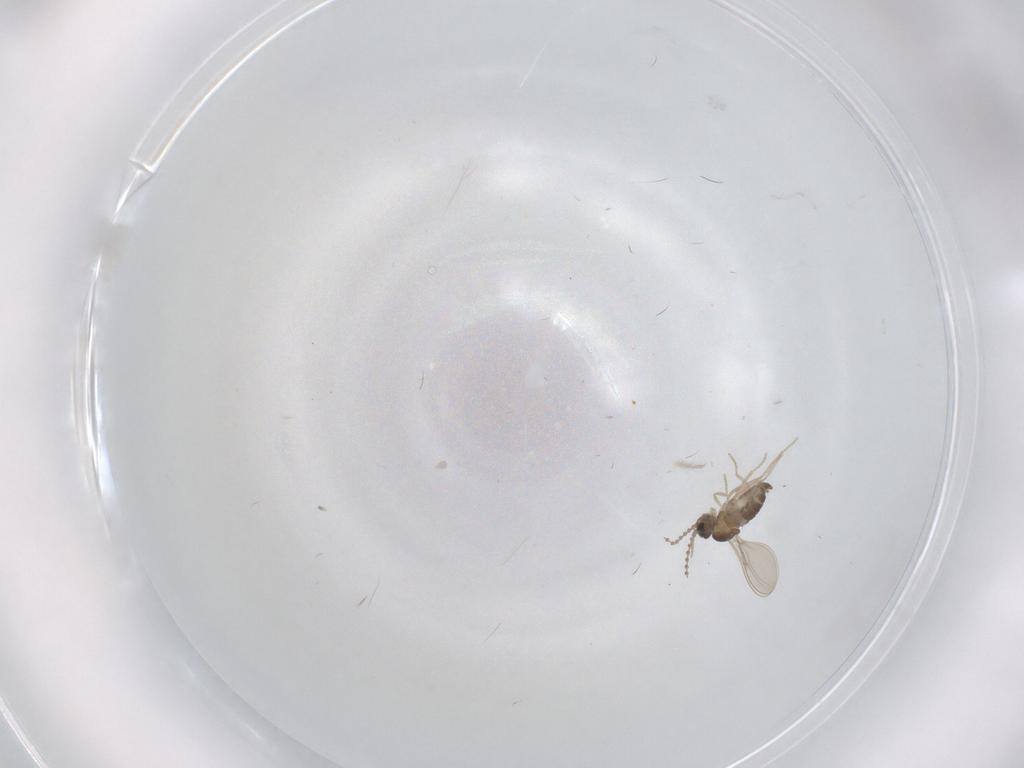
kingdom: Animalia
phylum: Arthropoda
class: Insecta
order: Diptera
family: Cecidomyiidae
